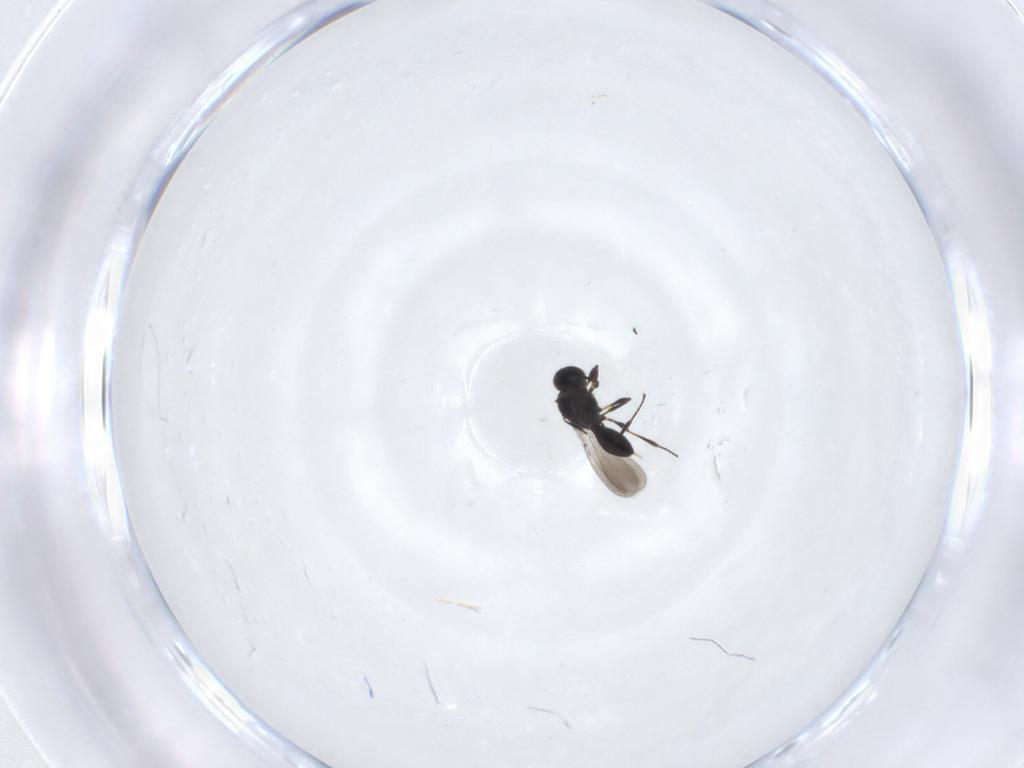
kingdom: Animalia
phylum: Arthropoda
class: Insecta
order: Hymenoptera
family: Platygastridae
